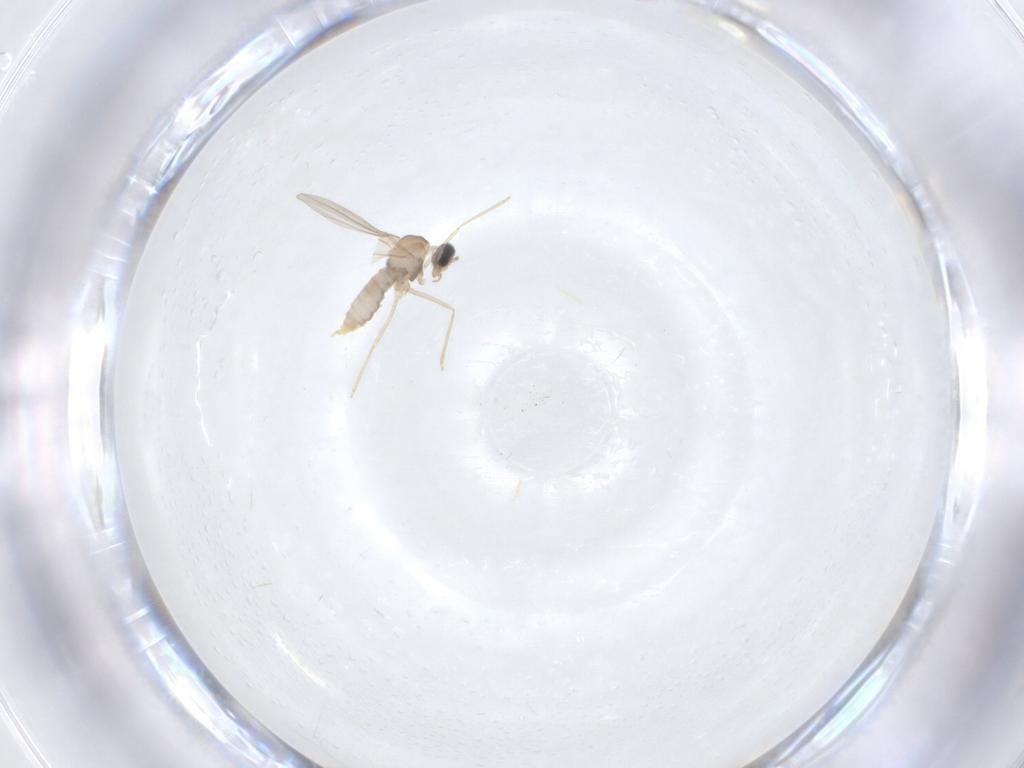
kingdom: Animalia
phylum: Arthropoda
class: Insecta
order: Diptera
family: Cecidomyiidae
